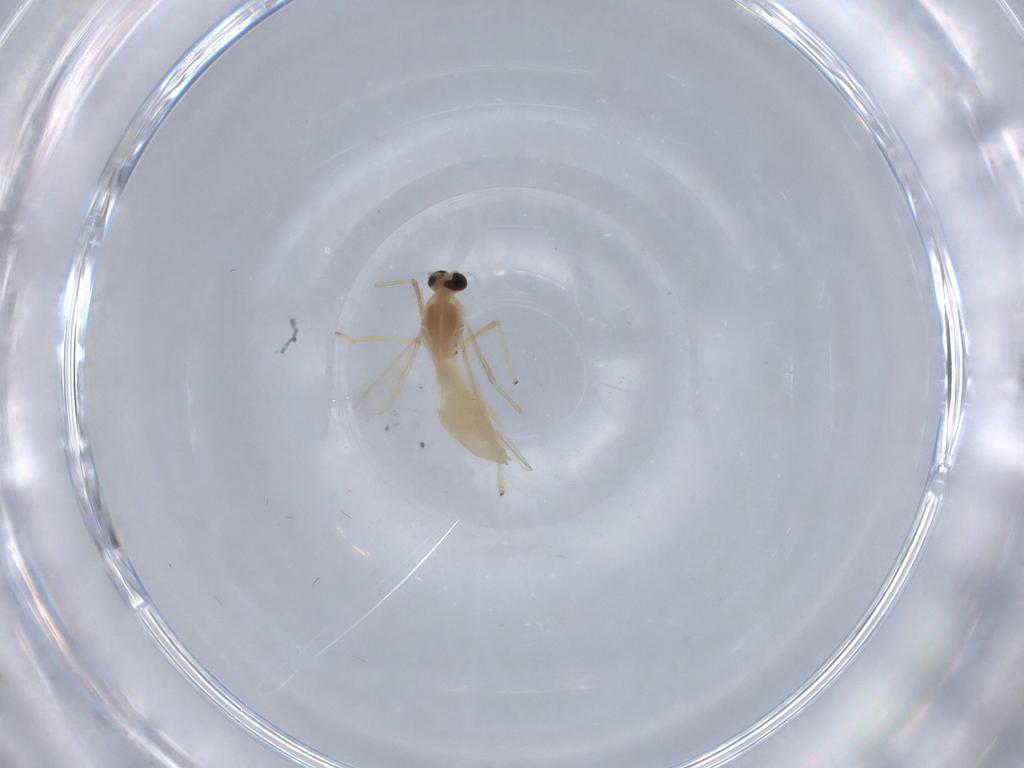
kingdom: Animalia
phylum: Arthropoda
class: Insecta
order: Diptera
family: Chironomidae
